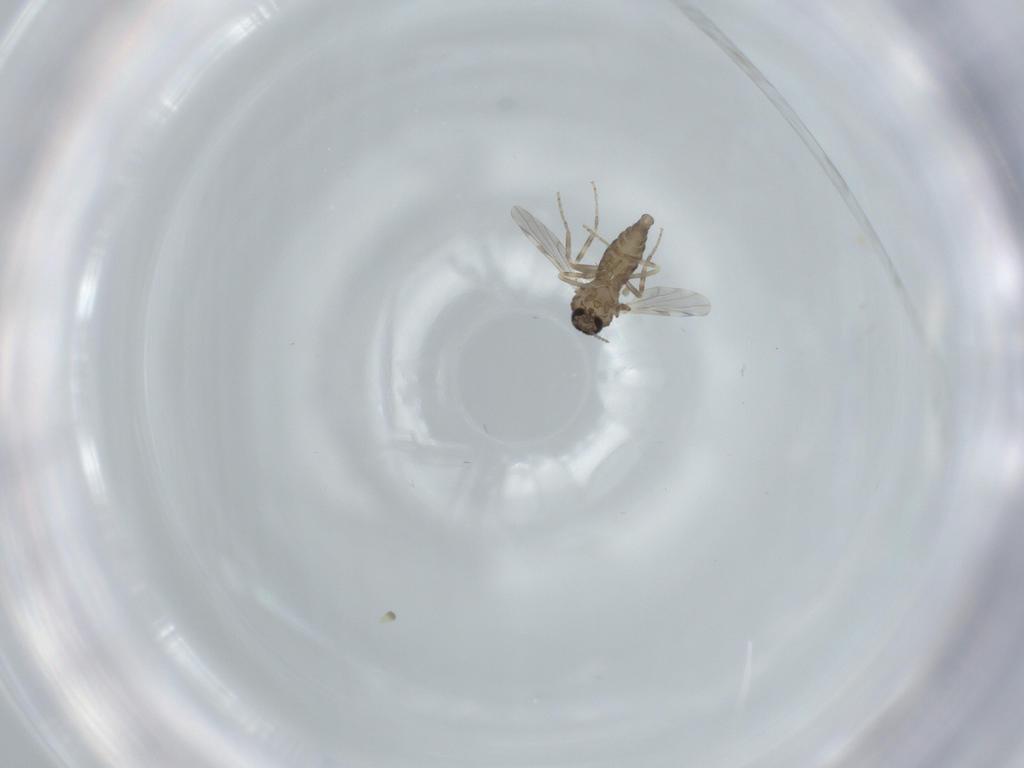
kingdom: Animalia
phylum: Arthropoda
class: Insecta
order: Diptera
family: Ceratopogonidae
